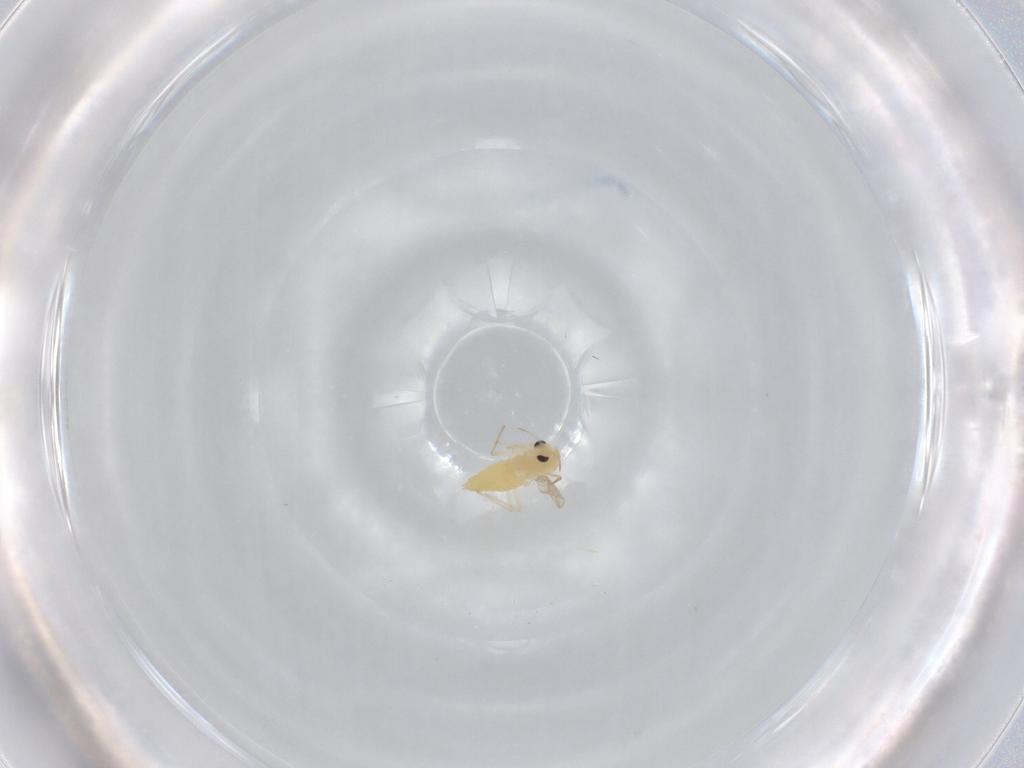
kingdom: Animalia
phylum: Arthropoda
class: Insecta
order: Diptera
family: Chironomidae
